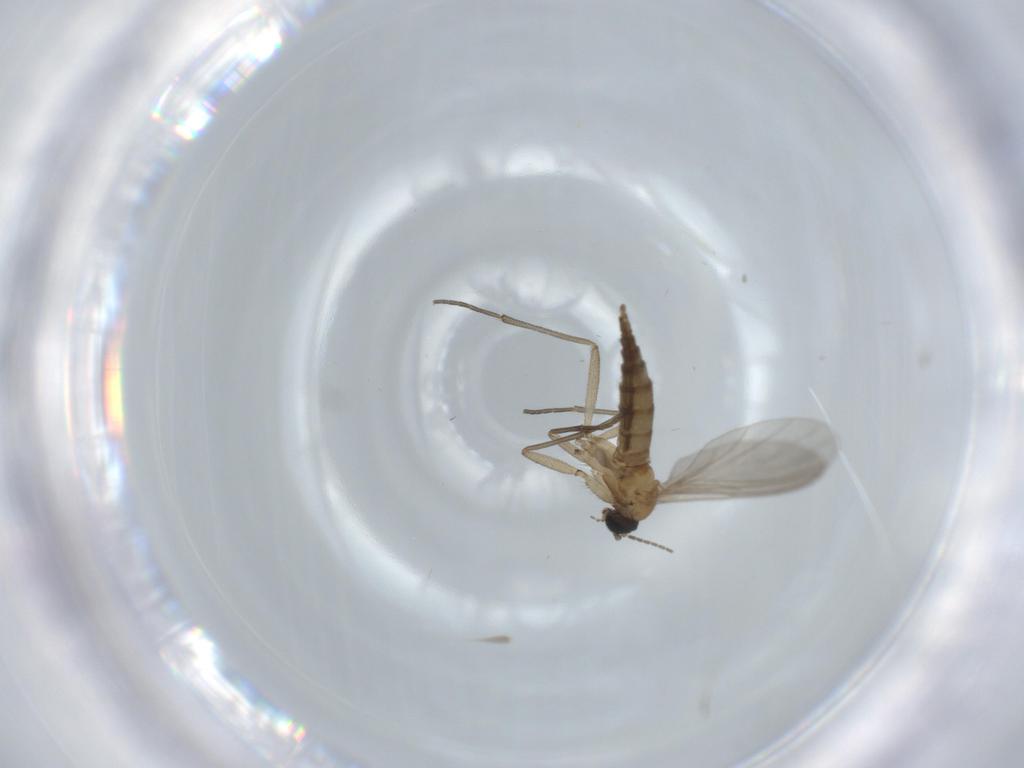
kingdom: Animalia
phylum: Arthropoda
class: Insecta
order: Diptera
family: Sciaridae
